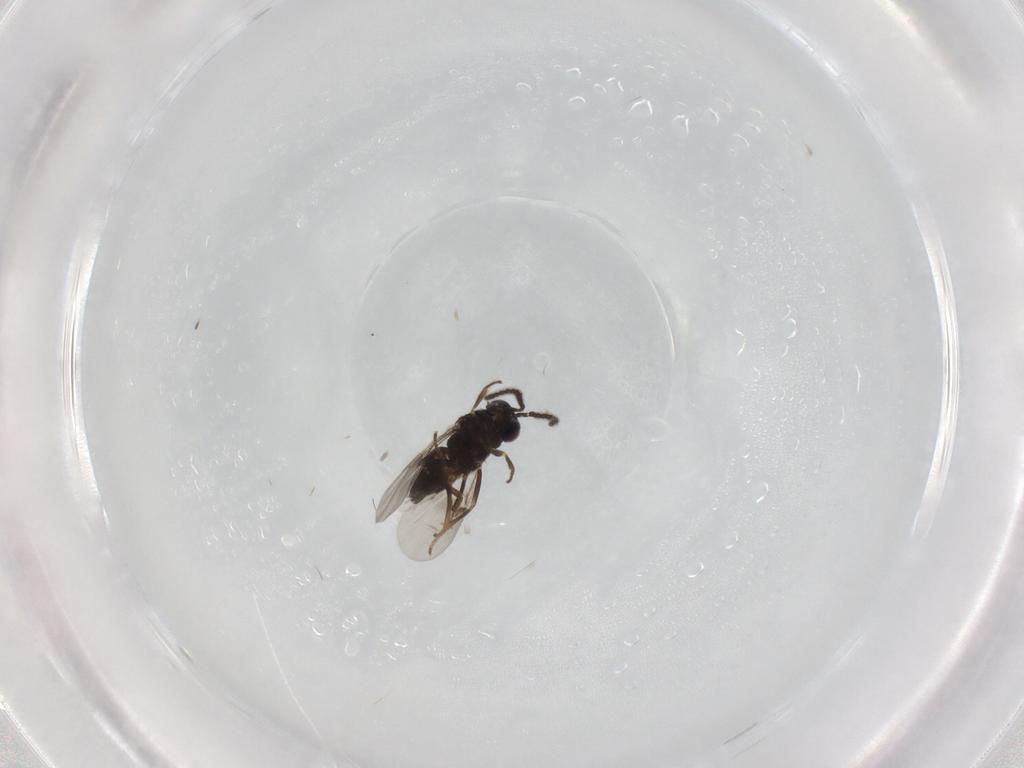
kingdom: Animalia
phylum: Arthropoda
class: Insecta
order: Hymenoptera
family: Encyrtidae
